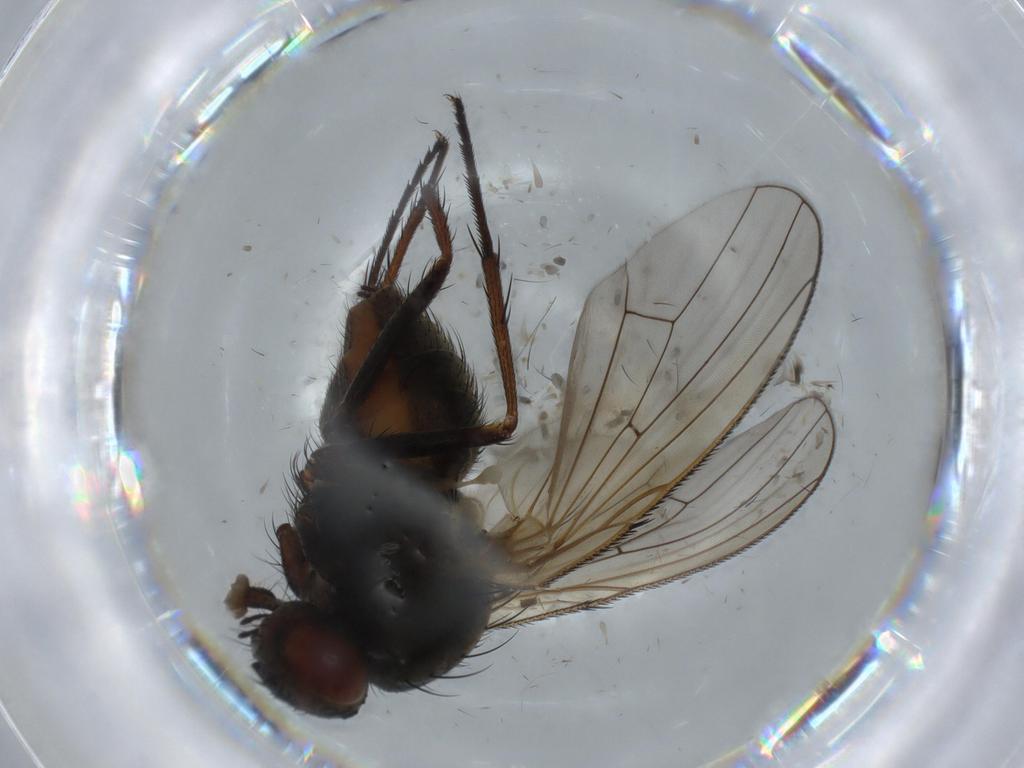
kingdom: Animalia
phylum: Arthropoda
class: Insecta
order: Diptera
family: Anthomyiidae
